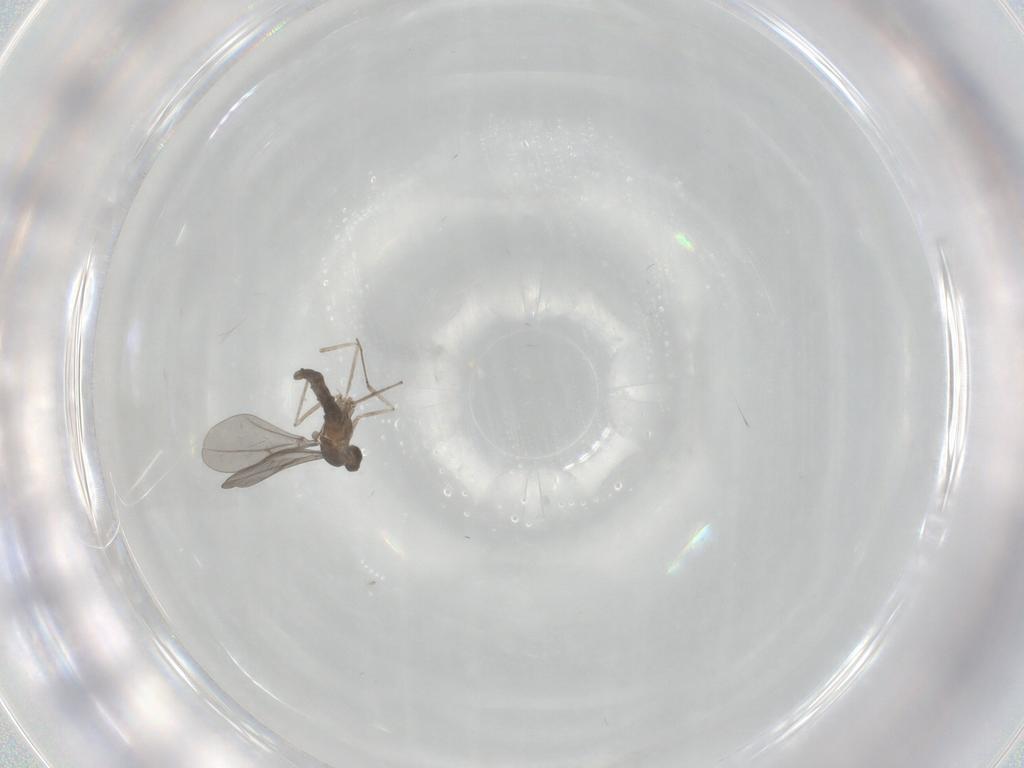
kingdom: Animalia
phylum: Arthropoda
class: Insecta
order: Diptera
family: Cecidomyiidae
